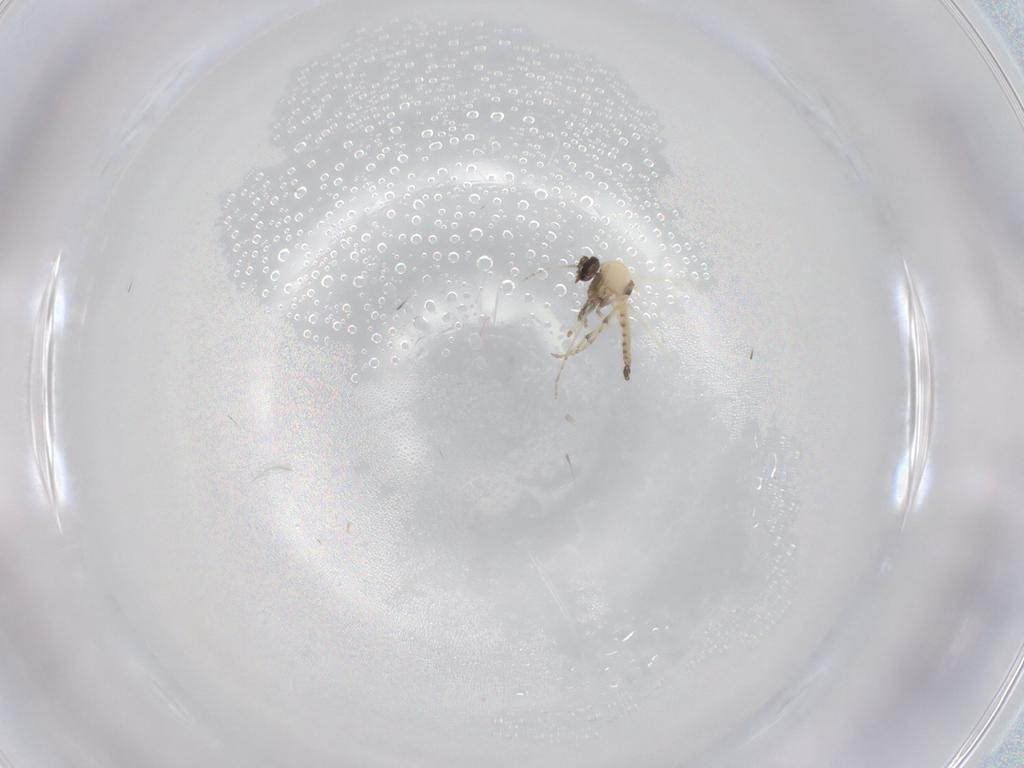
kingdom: Animalia
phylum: Arthropoda
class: Insecta
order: Diptera
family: Ceratopogonidae
